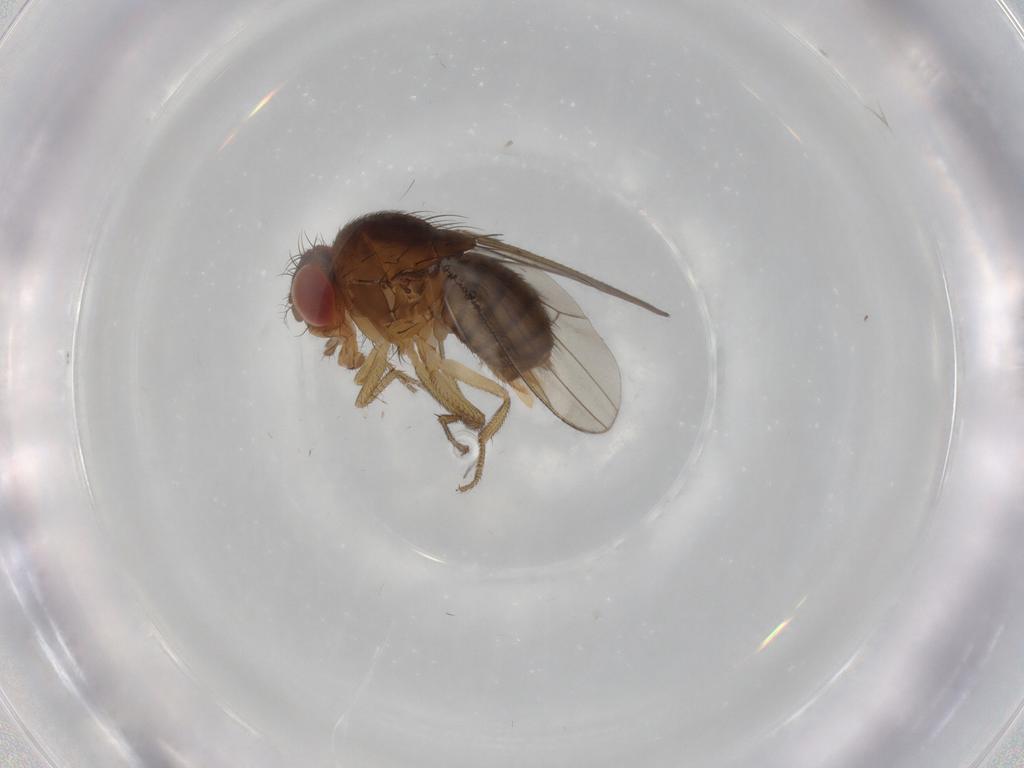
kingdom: Animalia
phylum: Arthropoda
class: Insecta
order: Diptera
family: Drosophilidae
